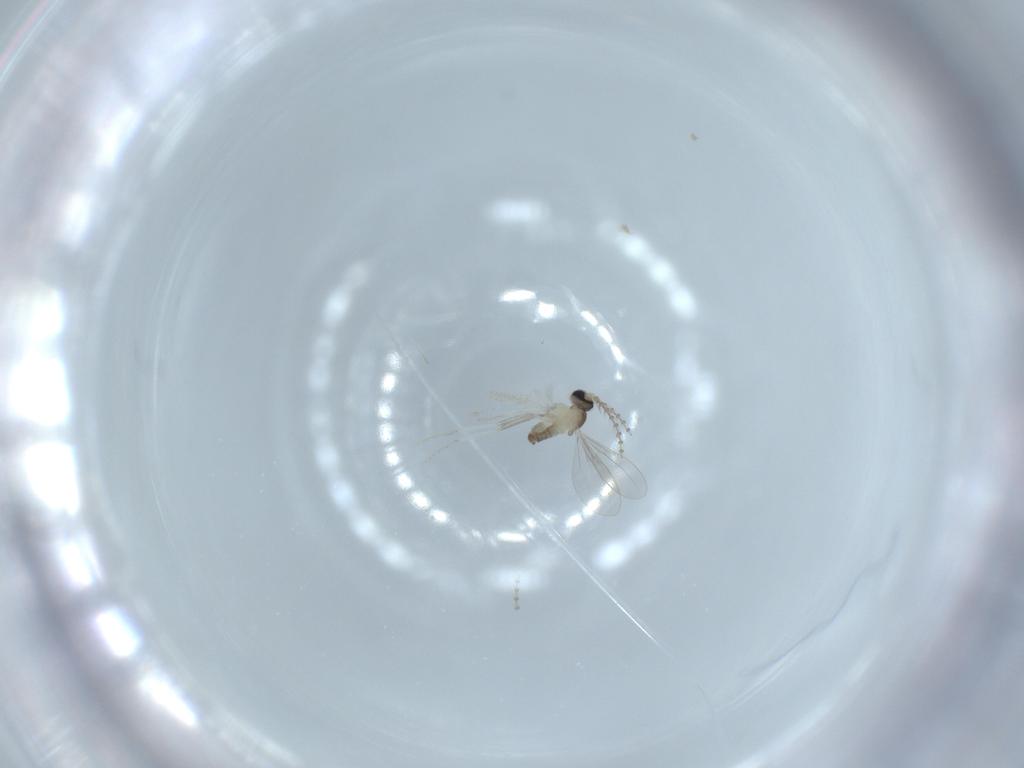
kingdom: Animalia
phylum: Arthropoda
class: Insecta
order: Diptera
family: Cecidomyiidae
